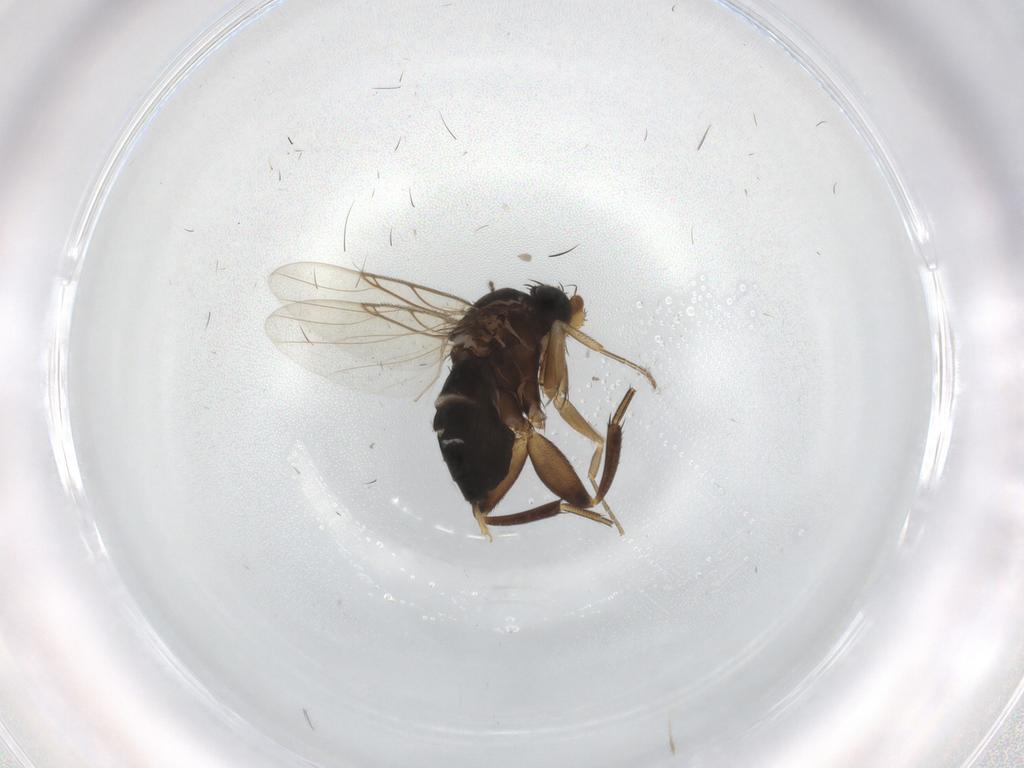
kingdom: Animalia
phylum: Arthropoda
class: Insecta
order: Diptera
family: Phoridae
